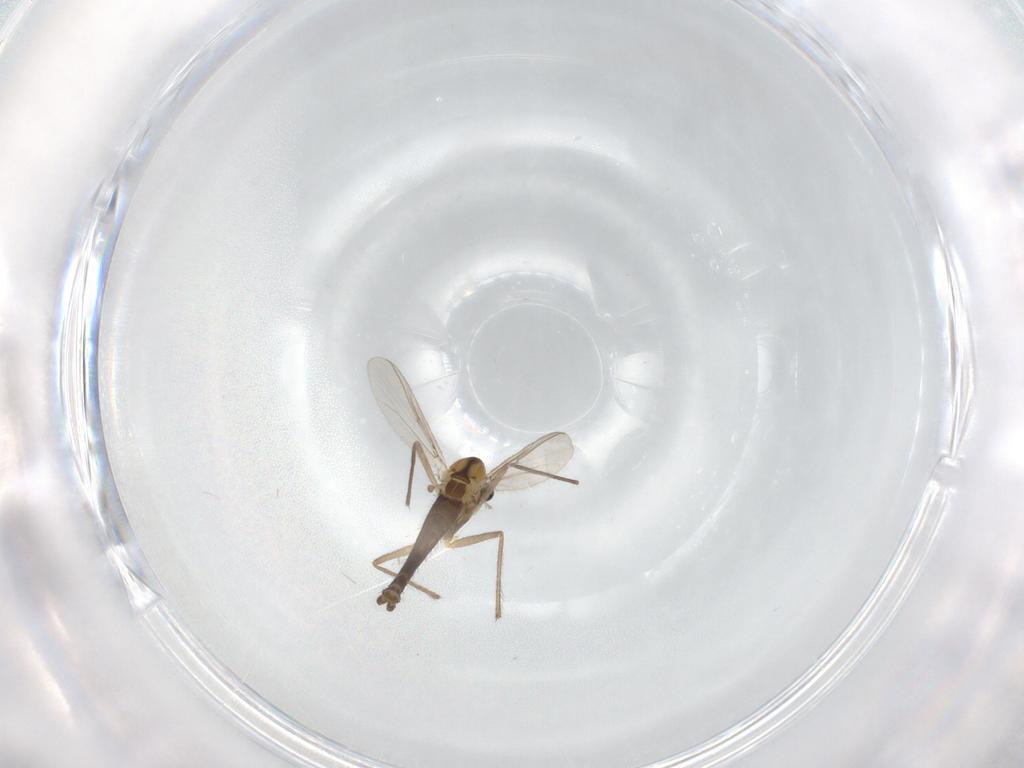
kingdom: Animalia
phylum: Arthropoda
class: Insecta
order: Diptera
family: Chironomidae
